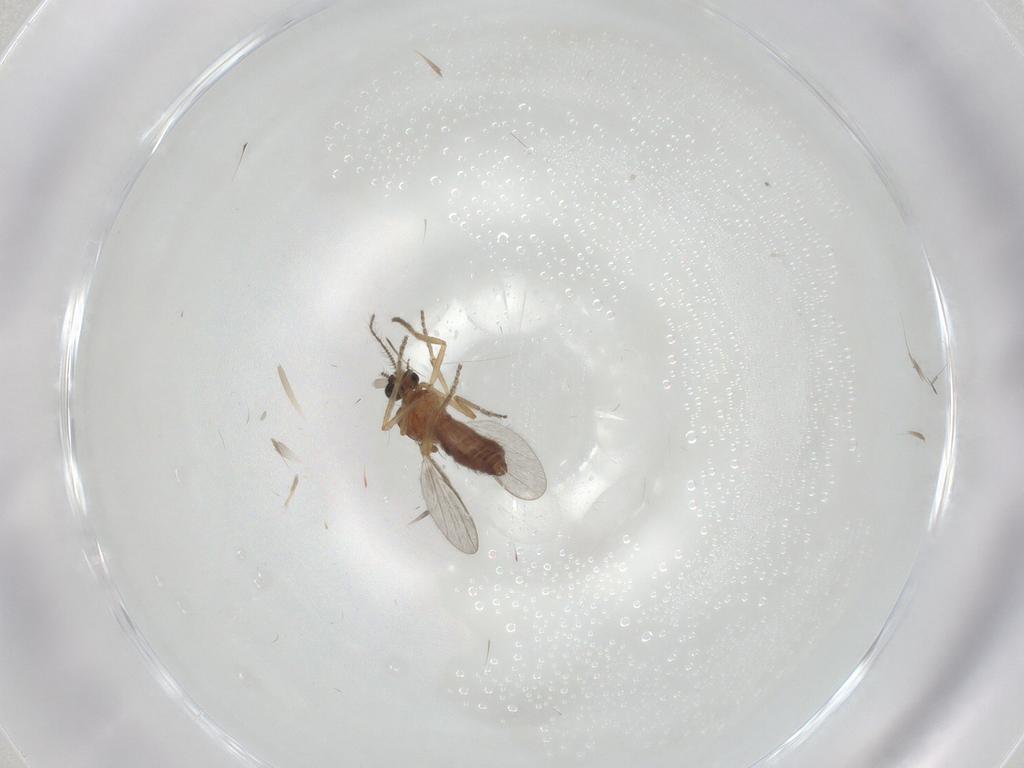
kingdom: Animalia
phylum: Arthropoda
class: Insecta
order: Diptera
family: Ceratopogonidae
